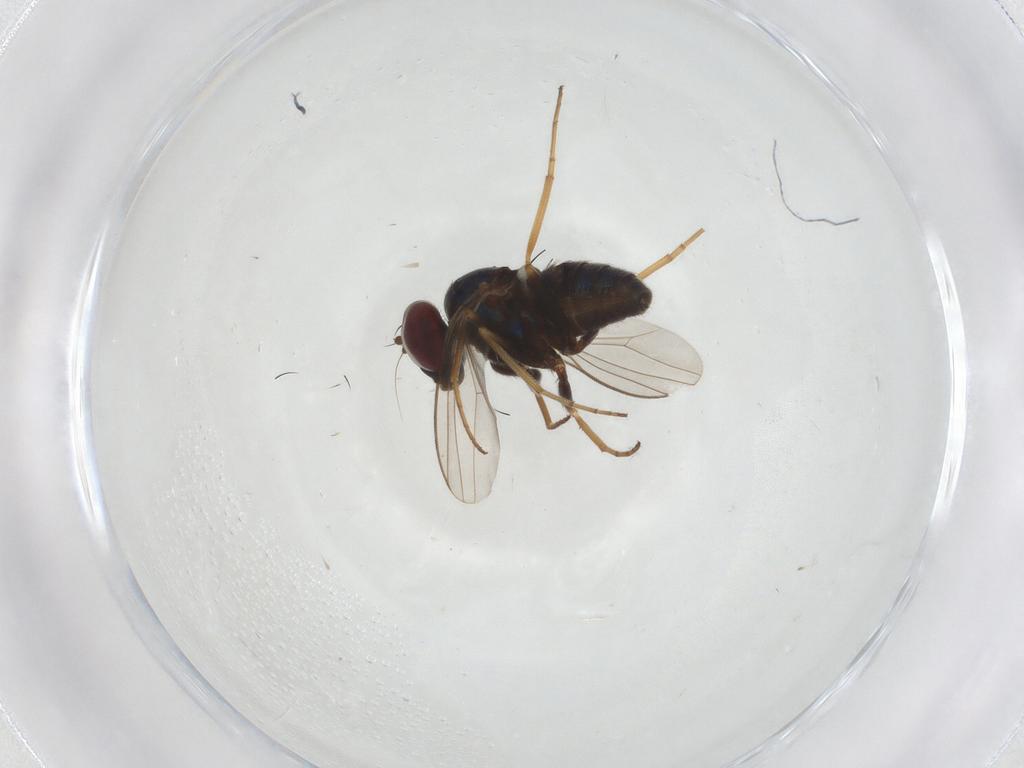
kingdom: Animalia
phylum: Arthropoda
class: Insecta
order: Diptera
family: Dolichopodidae
